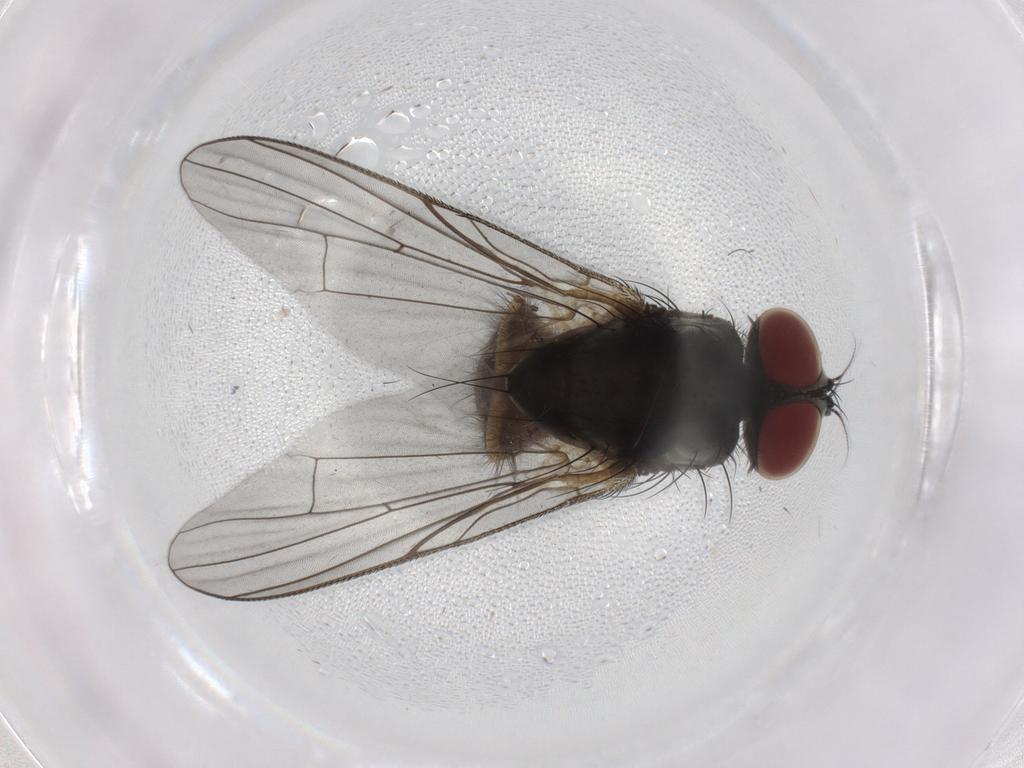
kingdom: Animalia
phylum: Arthropoda
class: Insecta
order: Diptera
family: Muscidae
